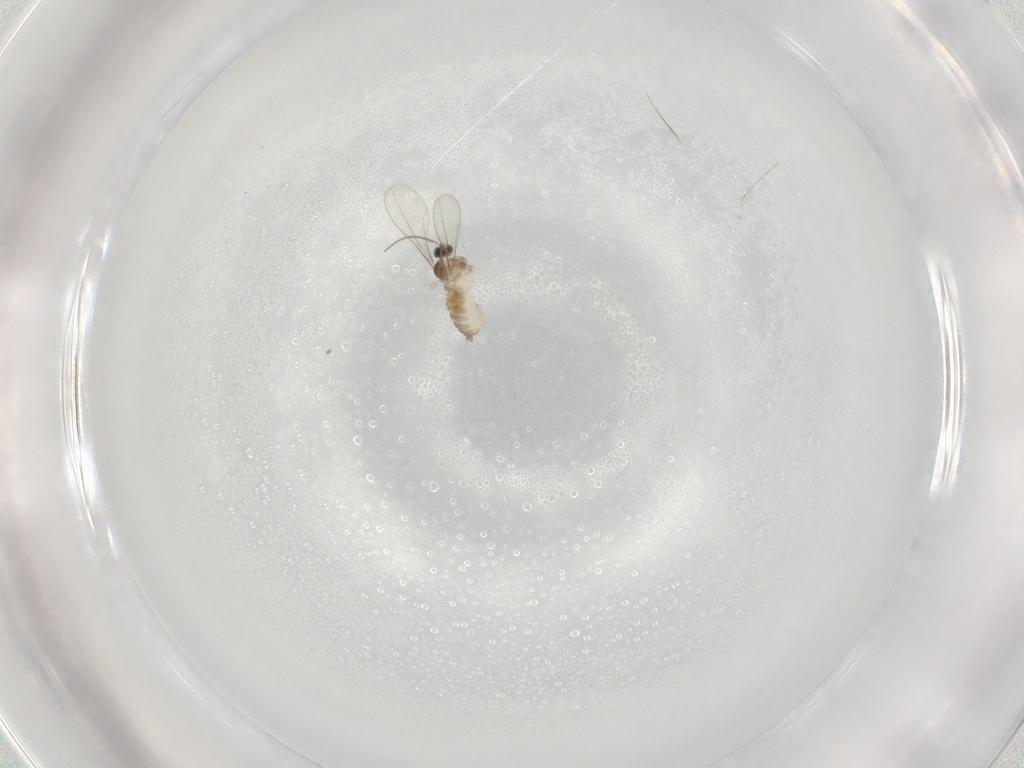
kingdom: Animalia
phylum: Arthropoda
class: Insecta
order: Diptera
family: Cecidomyiidae
